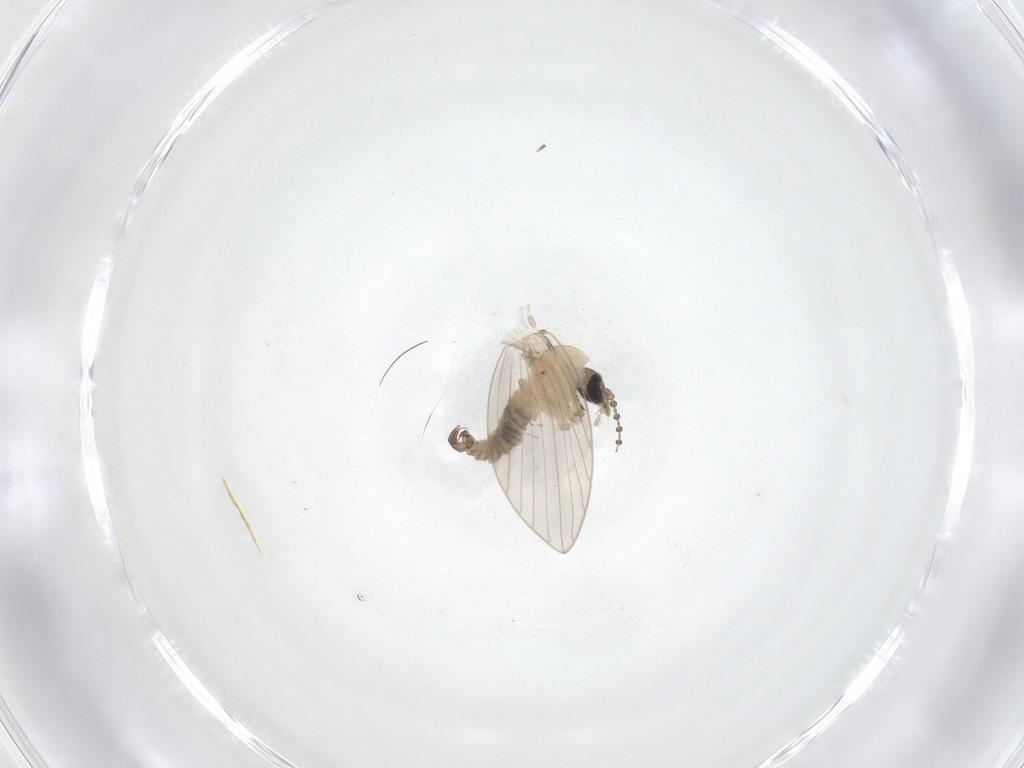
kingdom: Animalia
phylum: Arthropoda
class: Insecta
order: Diptera
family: Psychodidae
